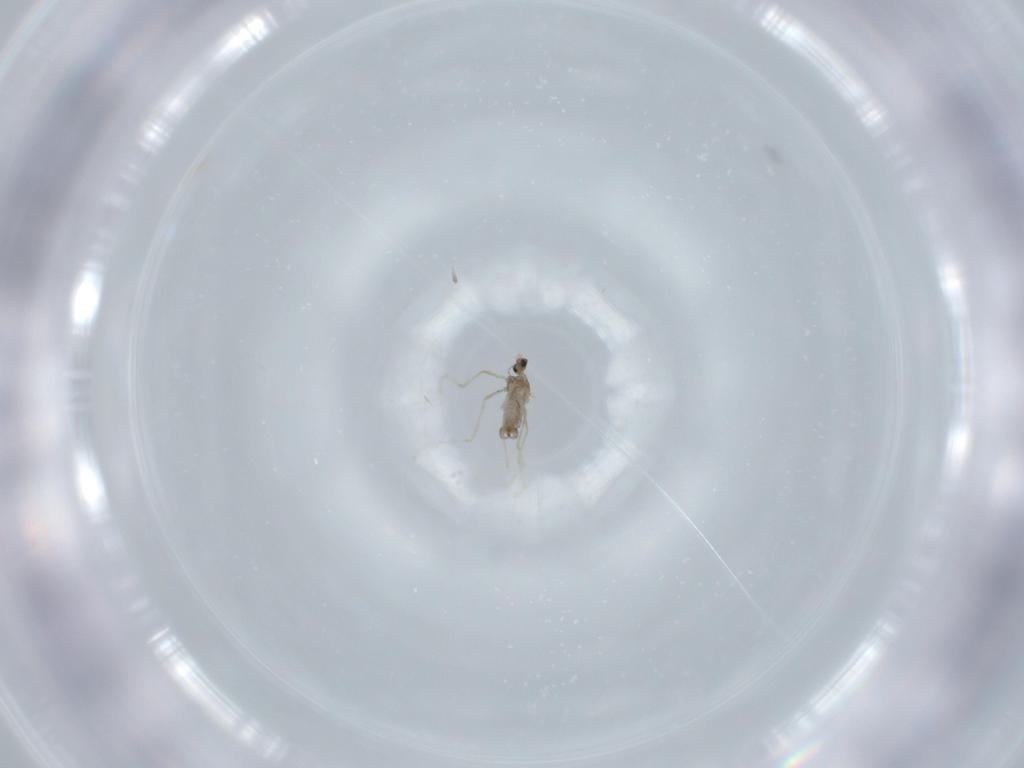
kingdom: Animalia
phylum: Arthropoda
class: Insecta
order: Diptera
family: Cecidomyiidae
